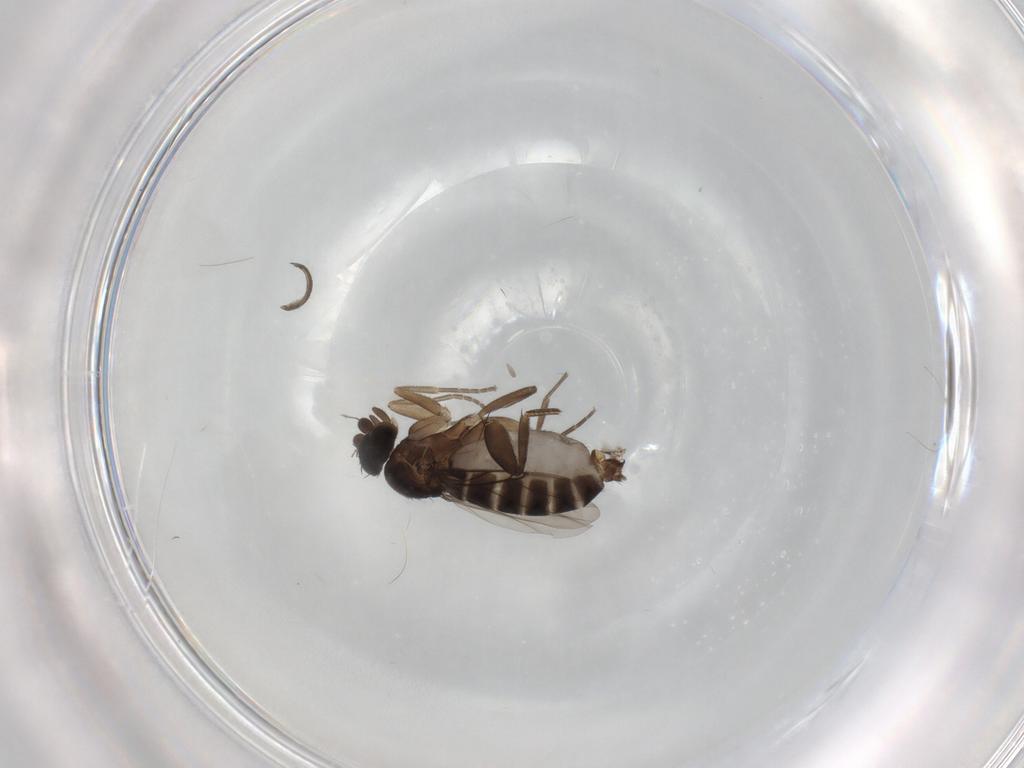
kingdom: Animalia
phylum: Arthropoda
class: Insecta
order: Diptera
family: Phoridae
